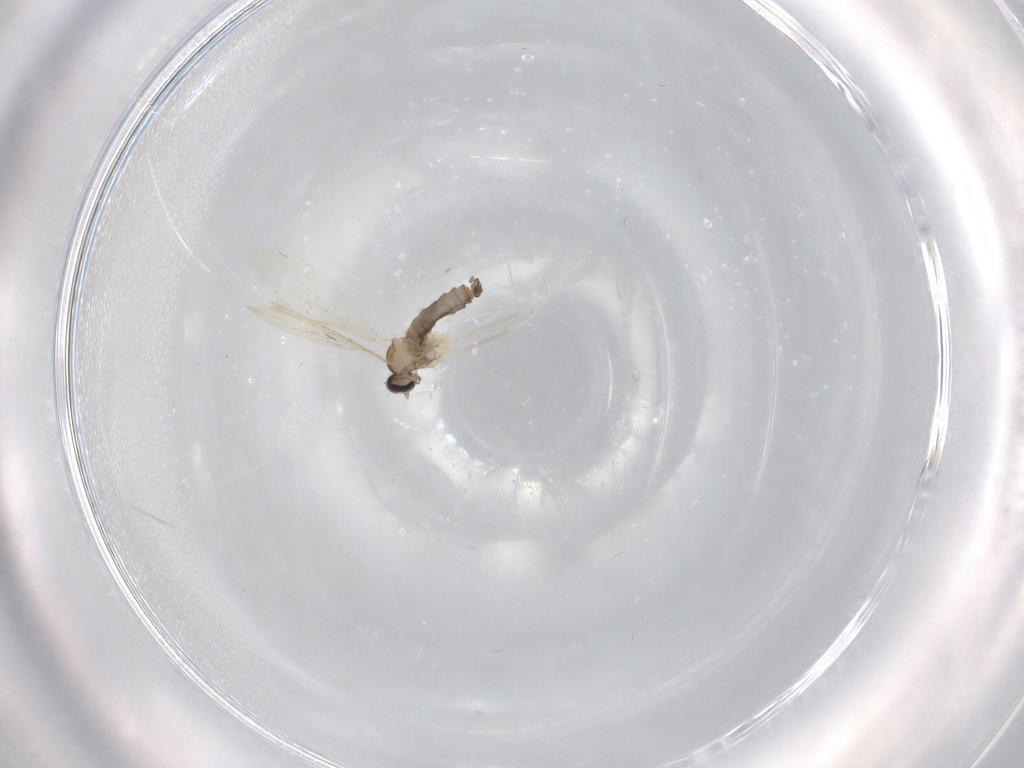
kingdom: Animalia
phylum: Arthropoda
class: Insecta
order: Diptera
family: Cecidomyiidae
